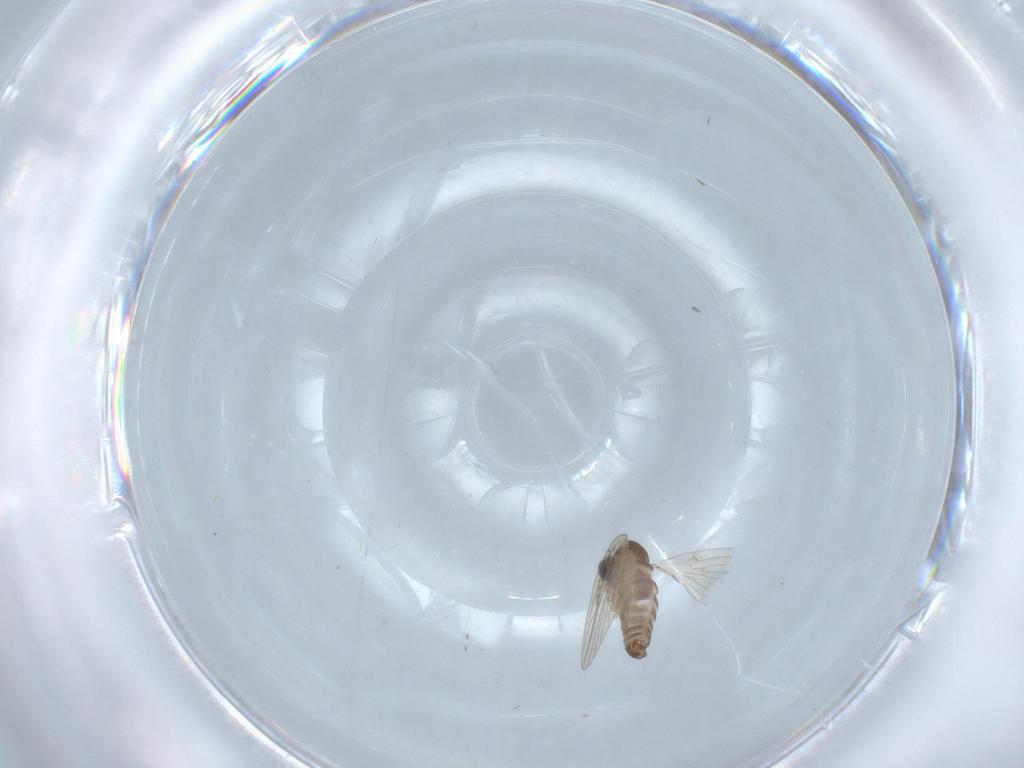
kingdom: Animalia
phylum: Arthropoda
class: Insecta
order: Diptera
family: Psychodidae
